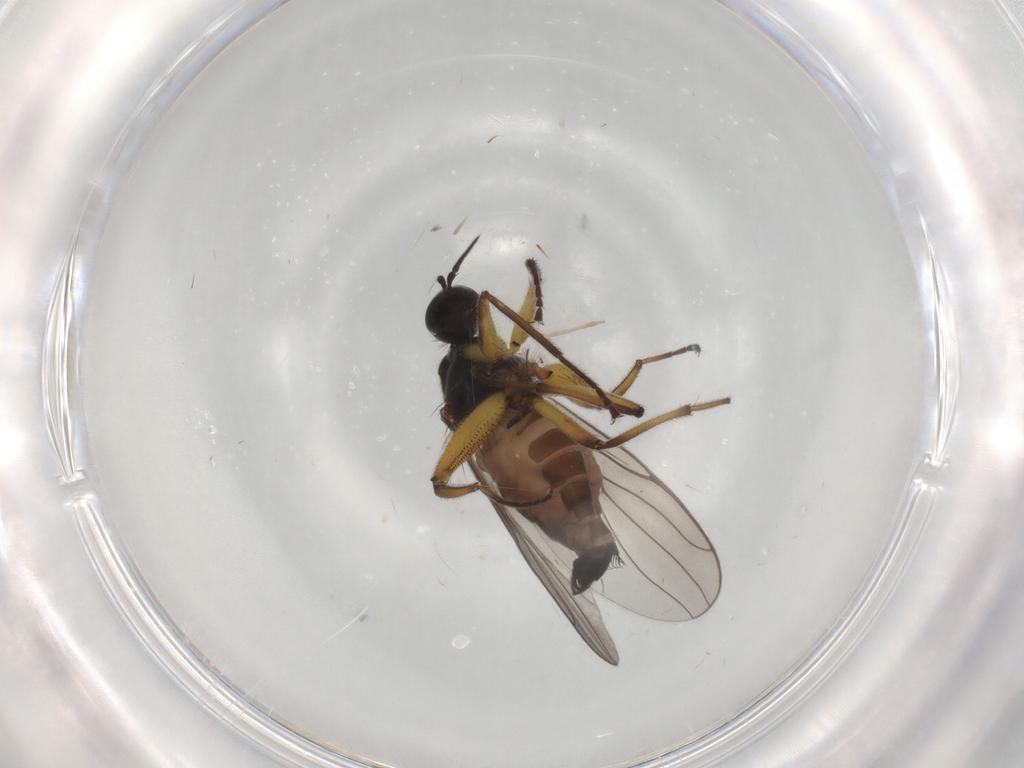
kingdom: Animalia
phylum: Arthropoda
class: Insecta
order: Diptera
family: Hybotidae
